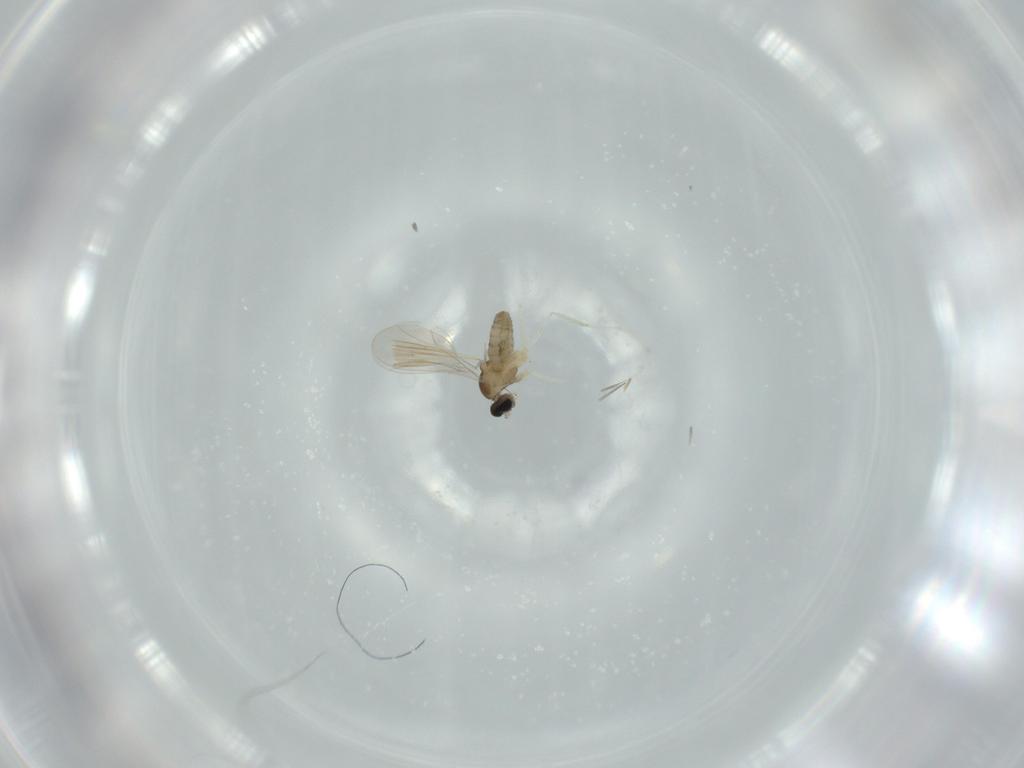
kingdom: Animalia
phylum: Arthropoda
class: Insecta
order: Diptera
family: Cecidomyiidae
